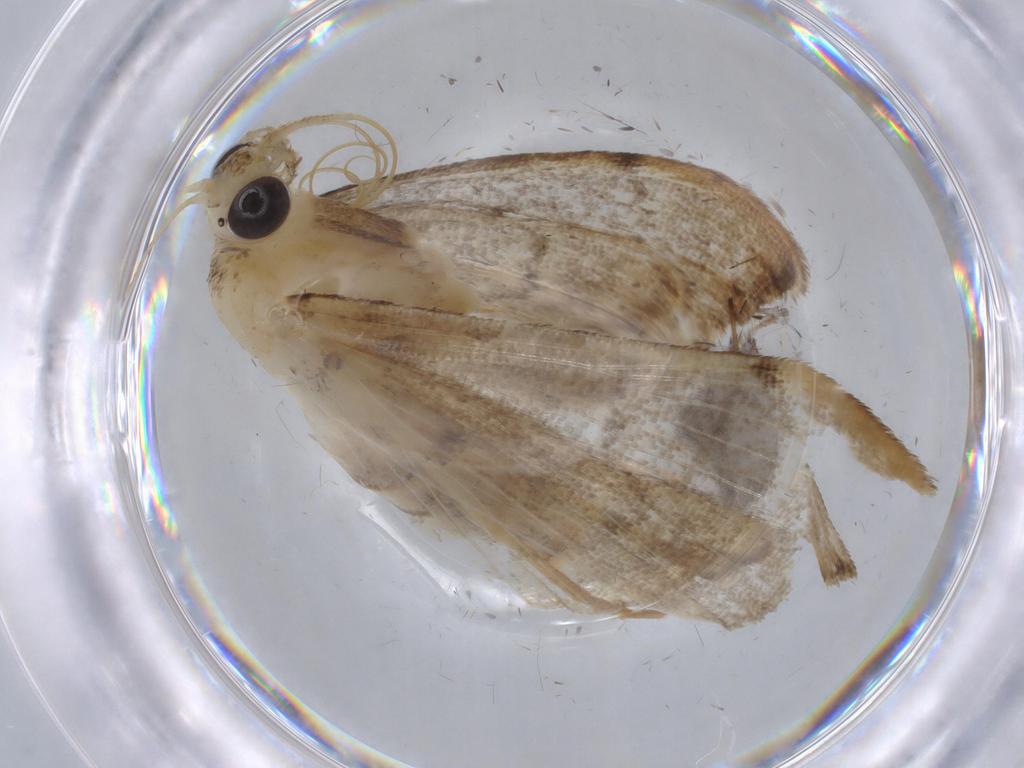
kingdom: Animalia
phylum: Arthropoda
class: Insecta
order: Lepidoptera
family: Crambidae
